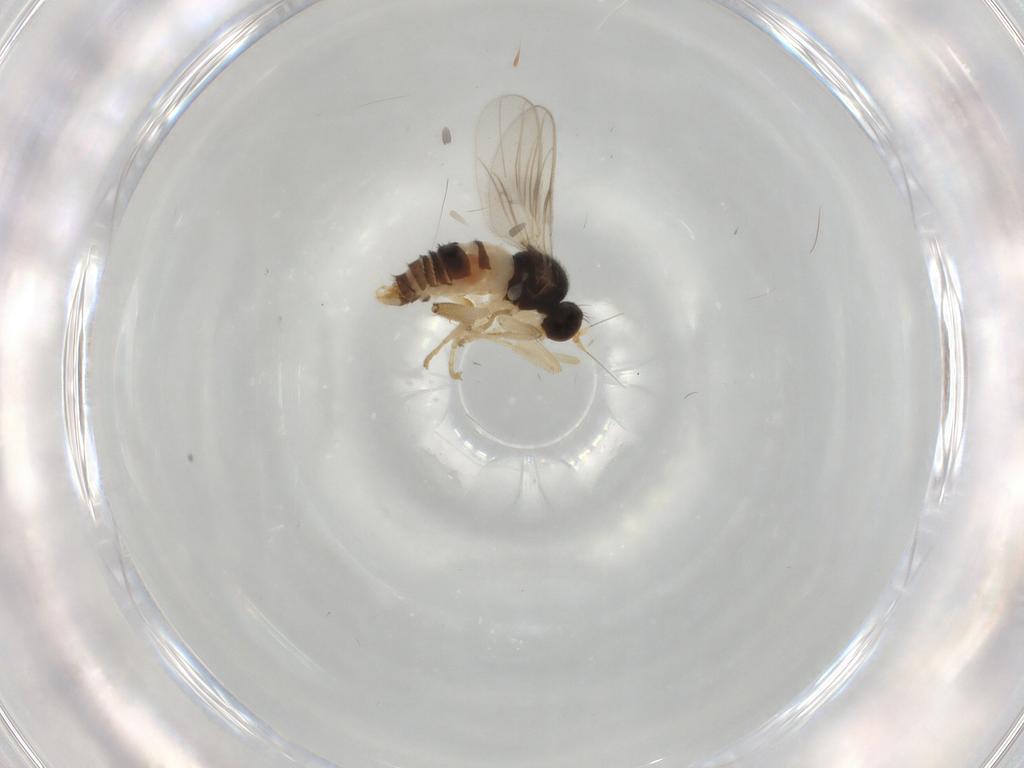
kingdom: Animalia
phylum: Arthropoda
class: Insecta
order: Diptera
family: Hybotidae
